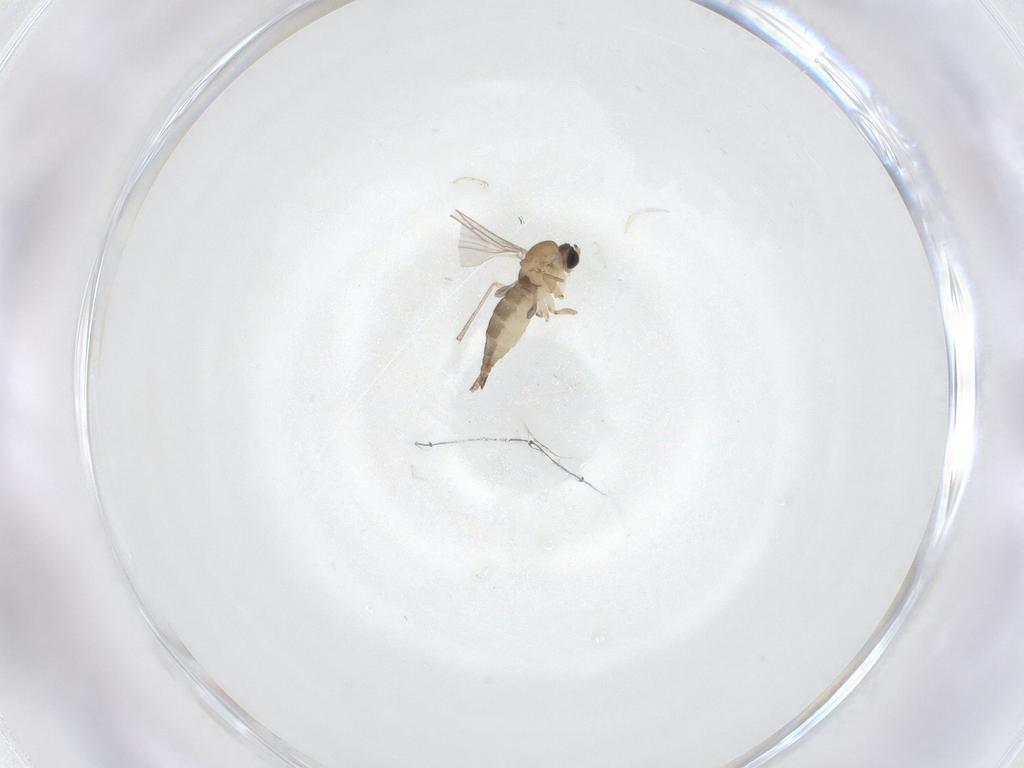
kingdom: Animalia
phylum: Arthropoda
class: Insecta
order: Diptera
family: Sciaridae
